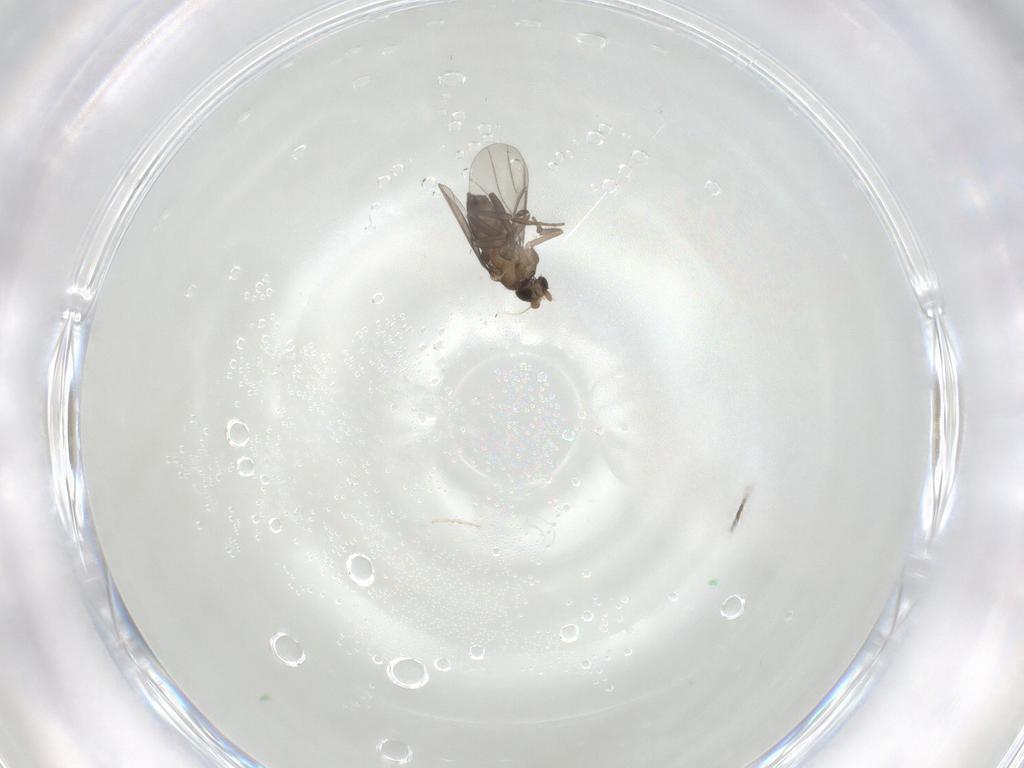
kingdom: Animalia
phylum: Arthropoda
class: Insecta
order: Diptera
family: Phoridae
